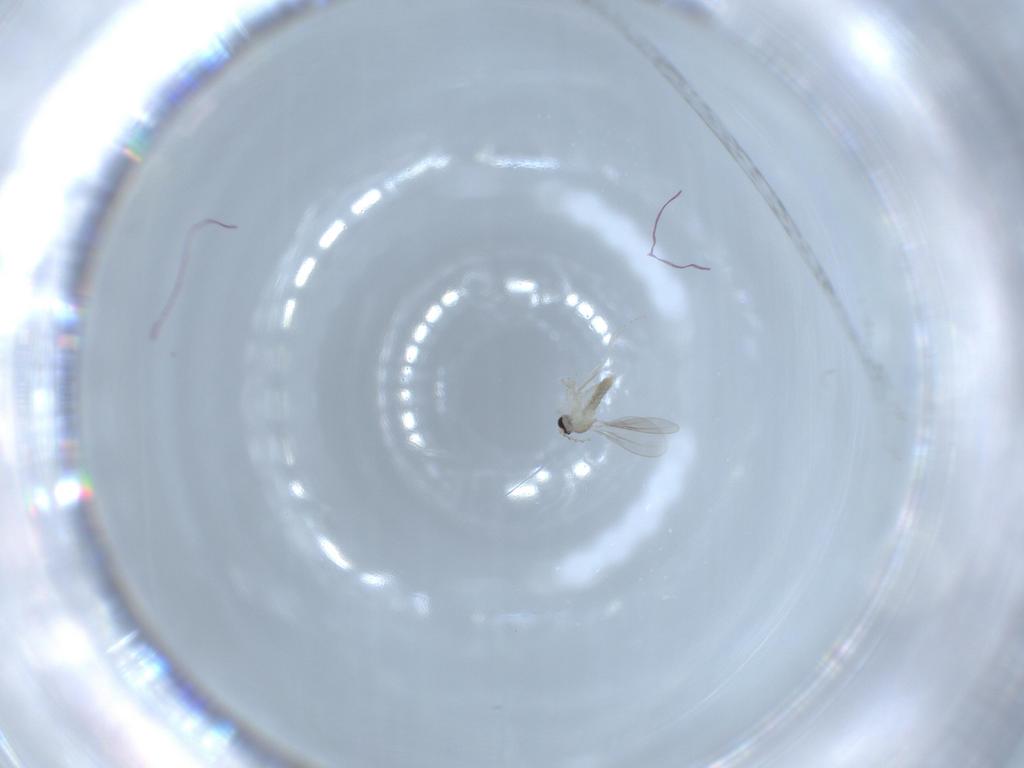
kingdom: Animalia
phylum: Arthropoda
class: Insecta
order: Diptera
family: Cecidomyiidae
